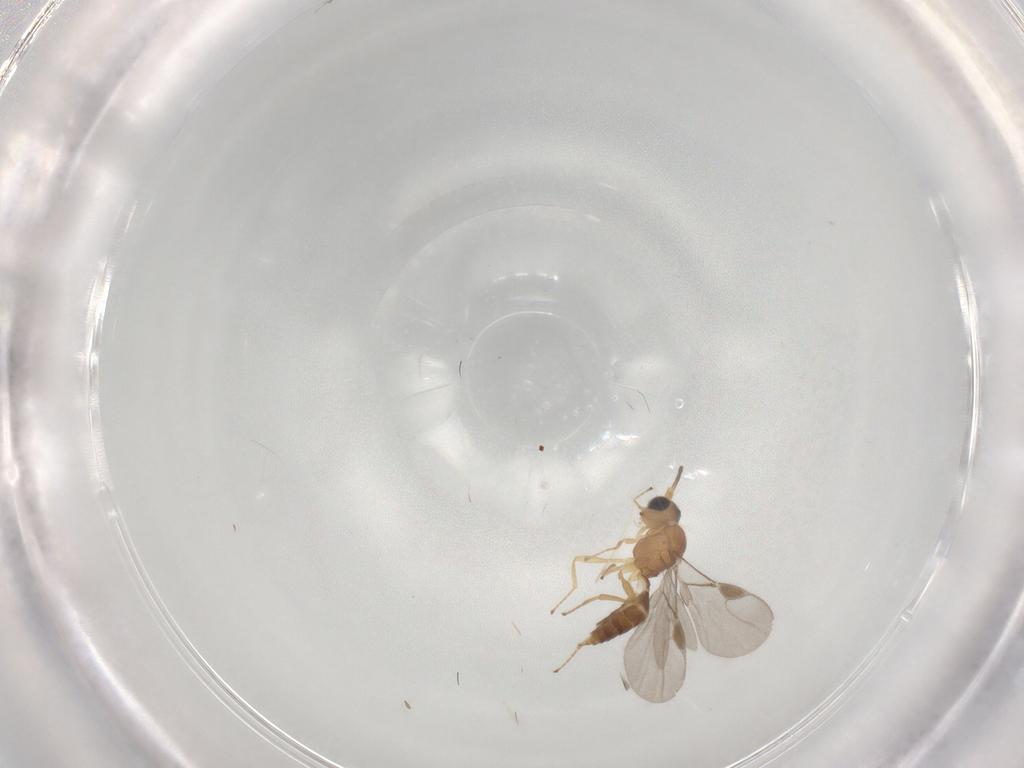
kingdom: Animalia
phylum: Arthropoda
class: Insecta
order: Hymenoptera
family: Braconidae
